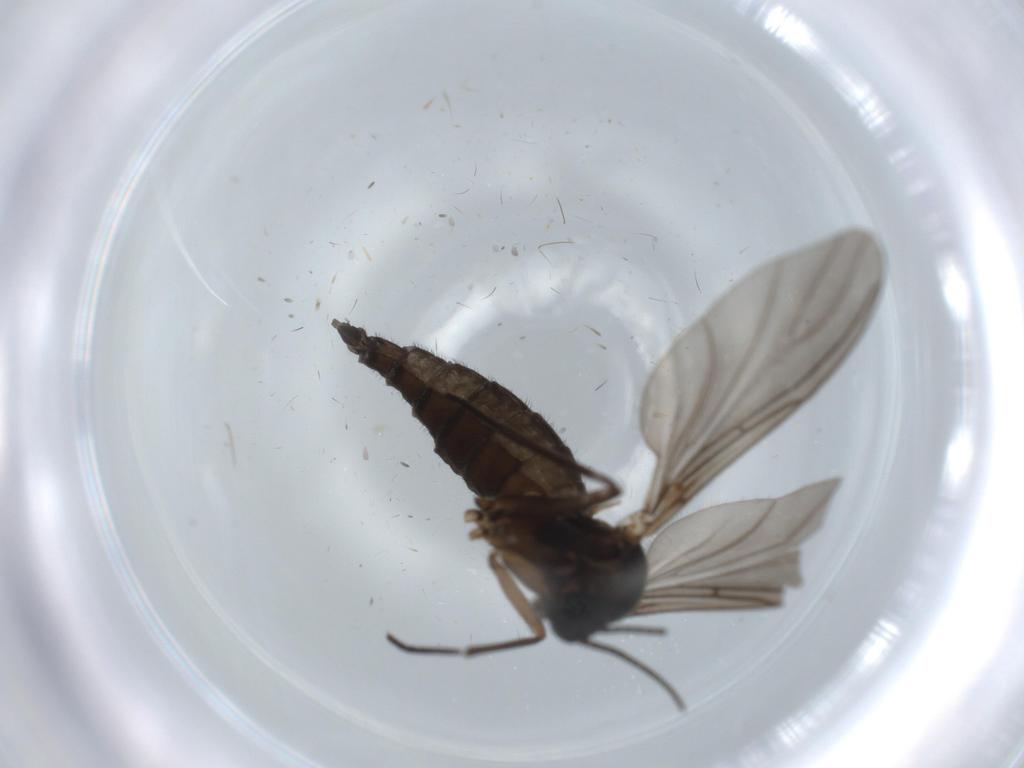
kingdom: Animalia
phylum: Arthropoda
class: Insecta
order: Diptera
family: Sciaridae
